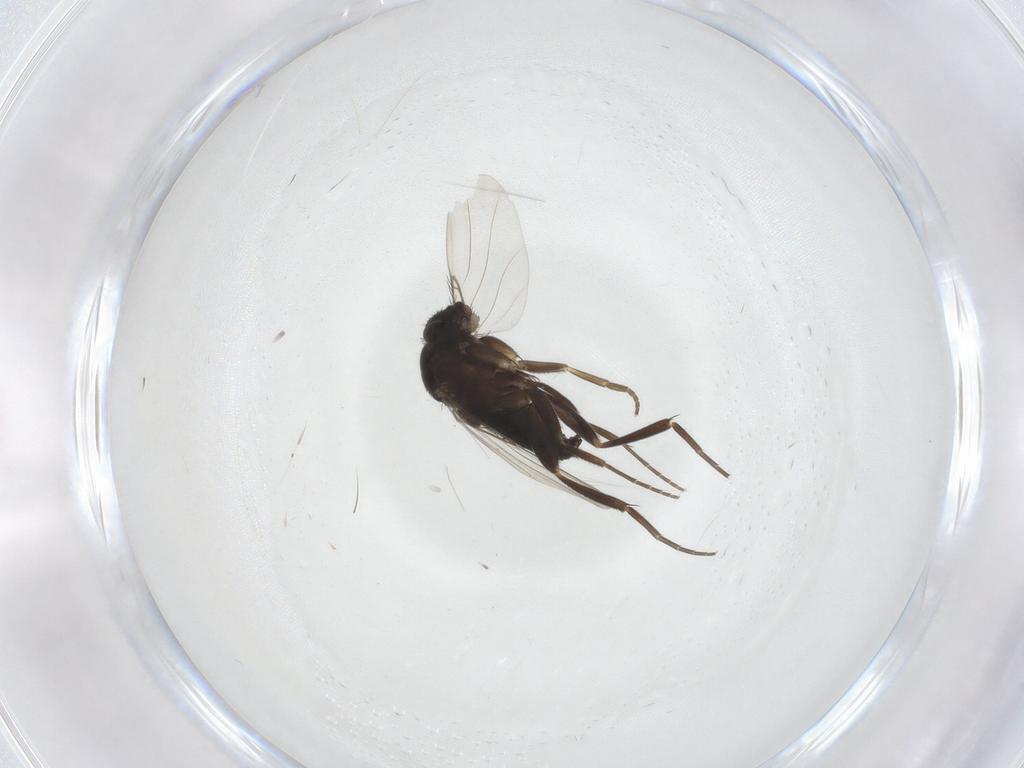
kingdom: Animalia
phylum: Arthropoda
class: Insecta
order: Diptera
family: Phoridae
